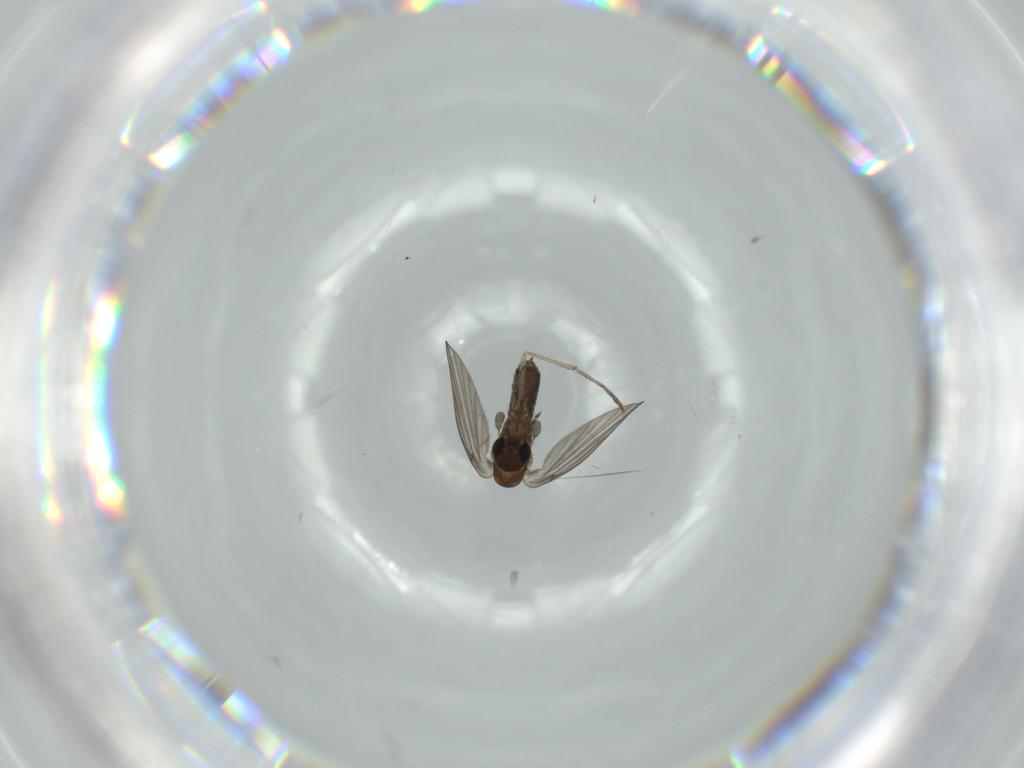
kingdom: Animalia
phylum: Arthropoda
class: Insecta
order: Diptera
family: Psychodidae
